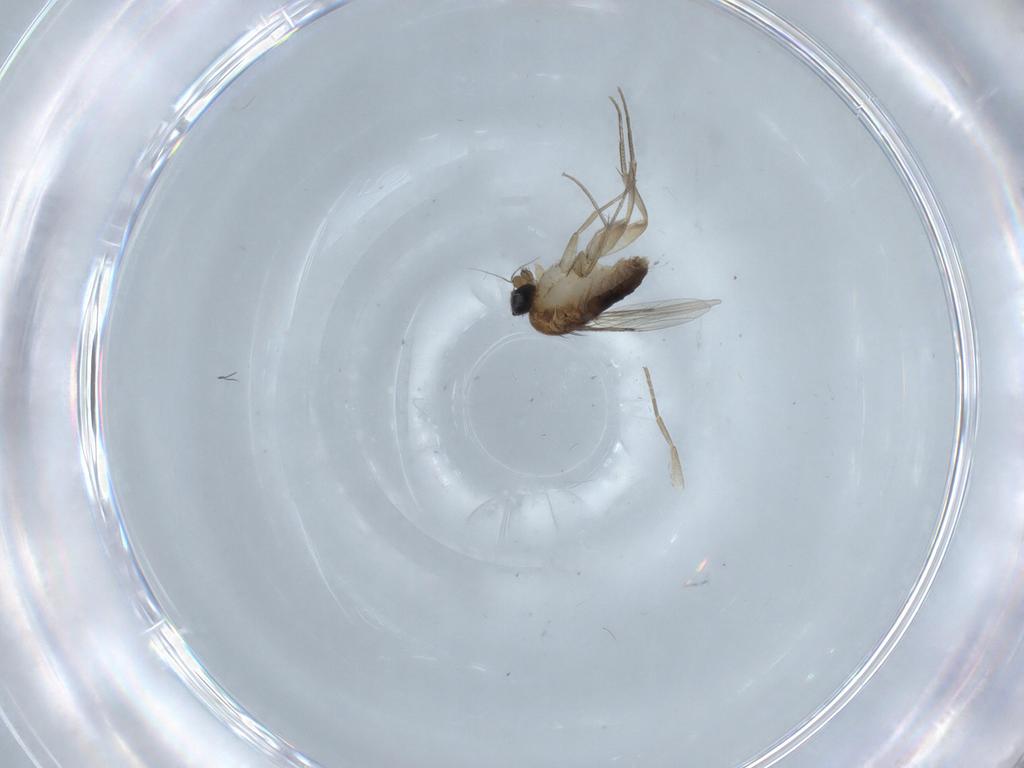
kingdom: Animalia
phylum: Arthropoda
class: Insecta
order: Diptera
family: Phoridae
